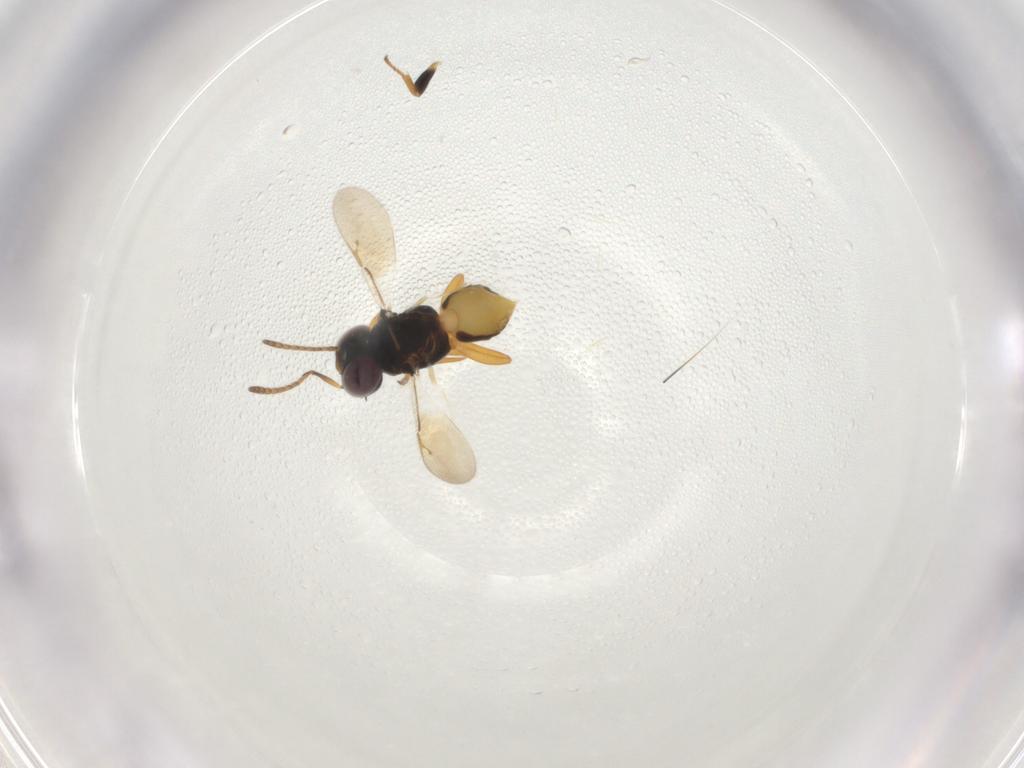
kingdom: Animalia
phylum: Arthropoda
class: Insecta
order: Hymenoptera
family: Encyrtidae
